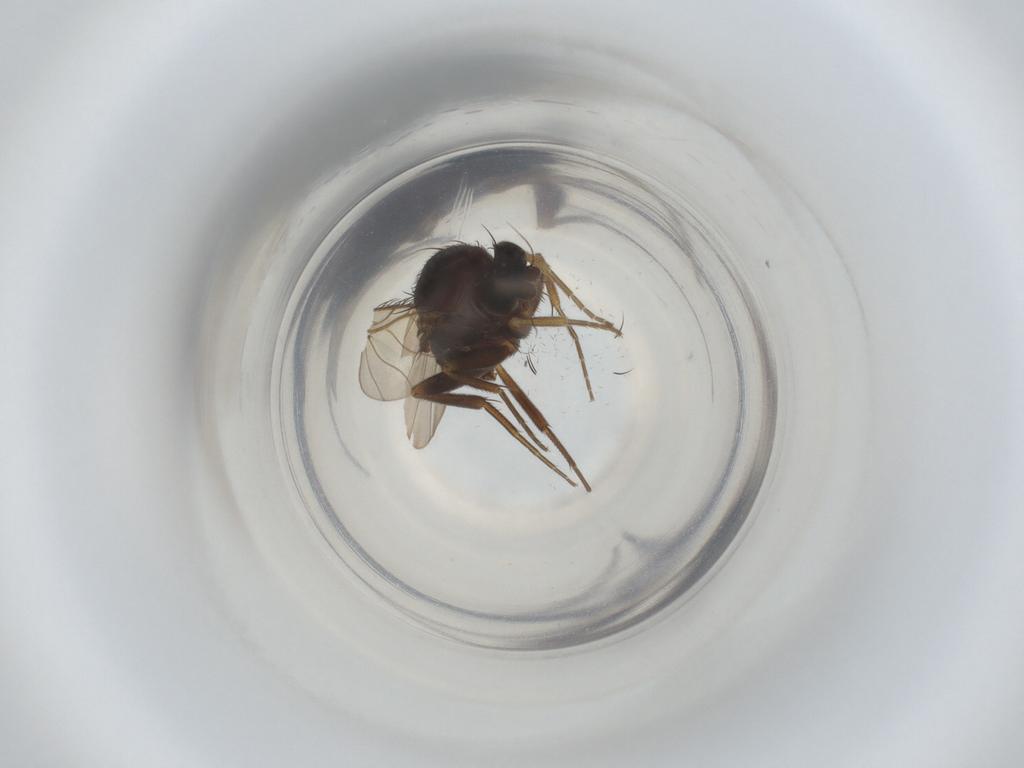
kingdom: Animalia
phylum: Arthropoda
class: Insecta
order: Diptera
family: Phoridae
